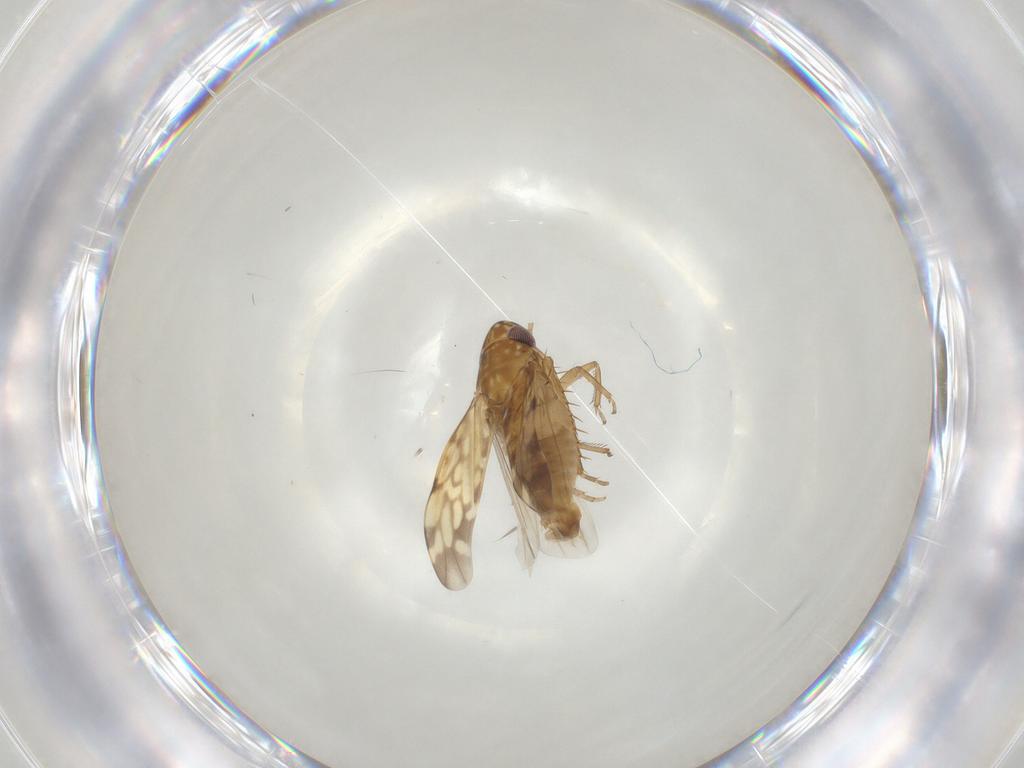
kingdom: Animalia
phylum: Arthropoda
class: Insecta
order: Hemiptera
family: Cicadellidae
